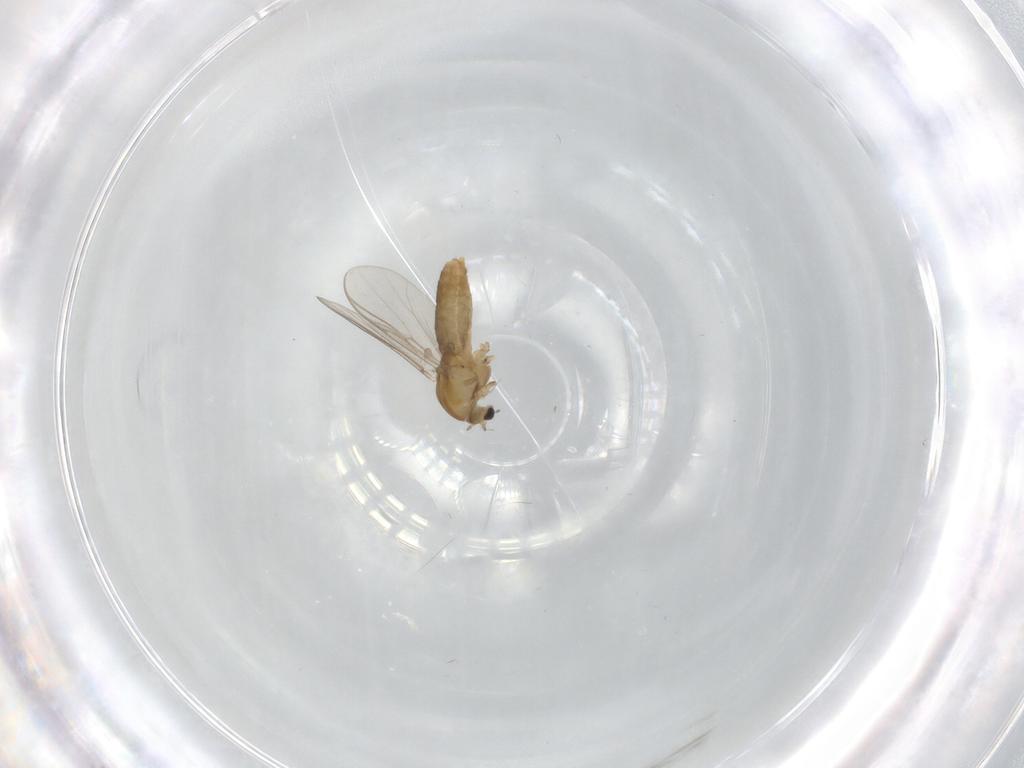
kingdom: Animalia
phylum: Arthropoda
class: Insecta
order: Diptera
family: Chironomidae
